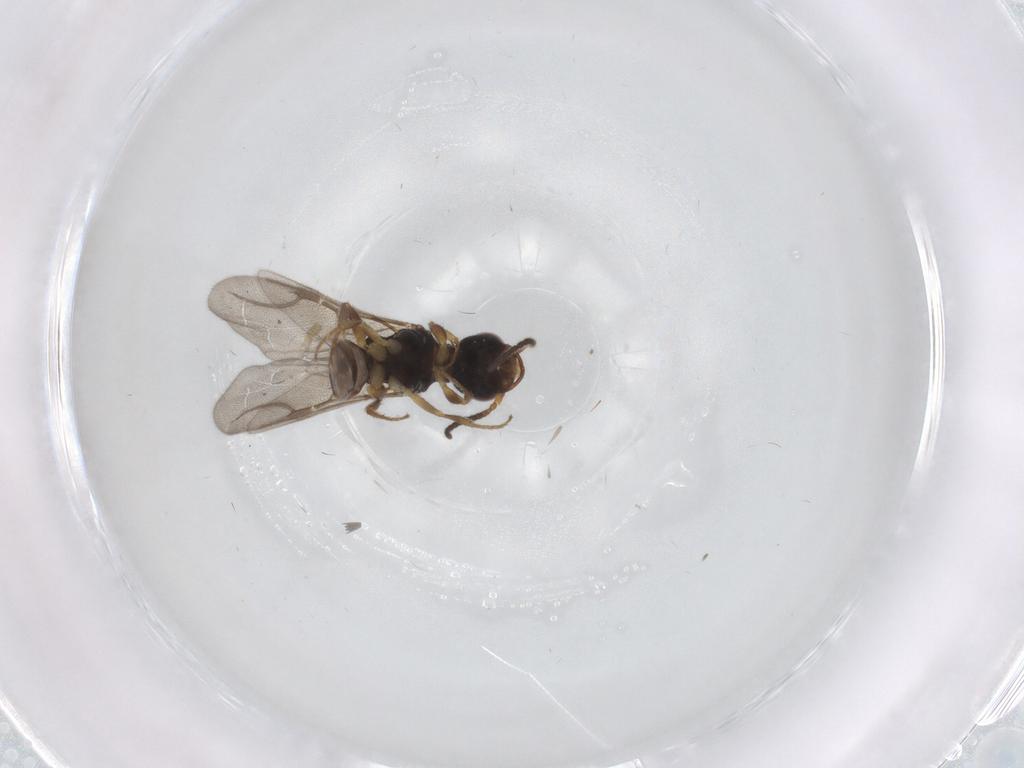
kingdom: Animalia
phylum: Arthropoda
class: Insecta
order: Hymenoptera
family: Bethylidae
